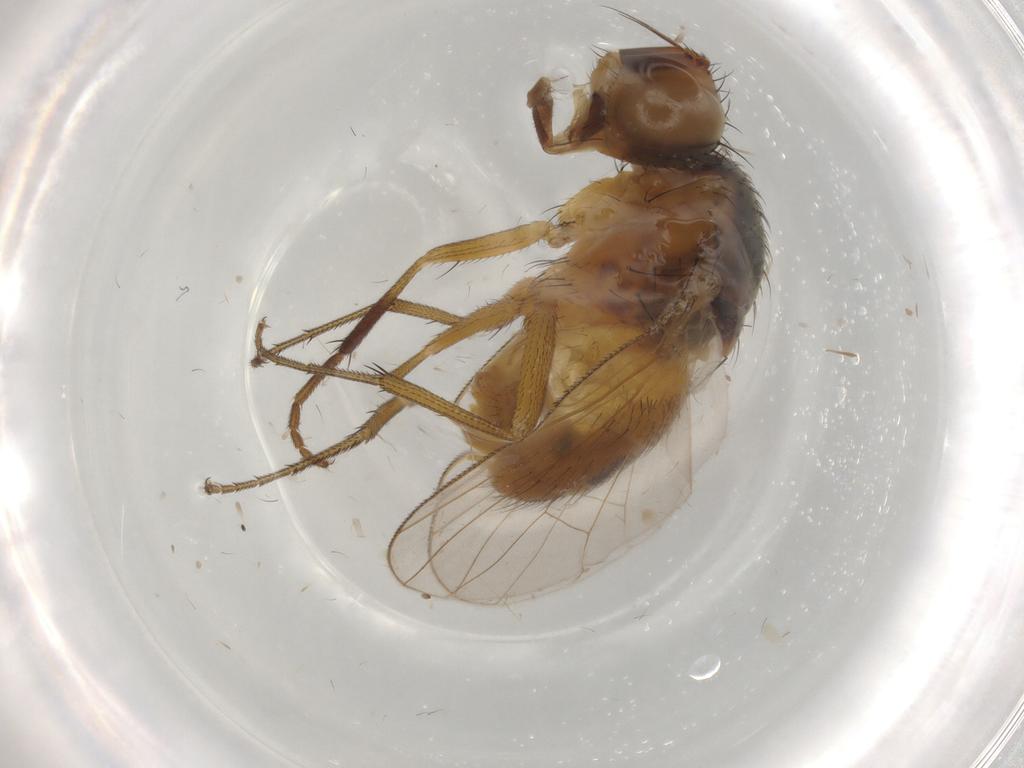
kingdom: Animalia
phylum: Arthropoda
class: Insecta
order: Diptera
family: Muscidae
